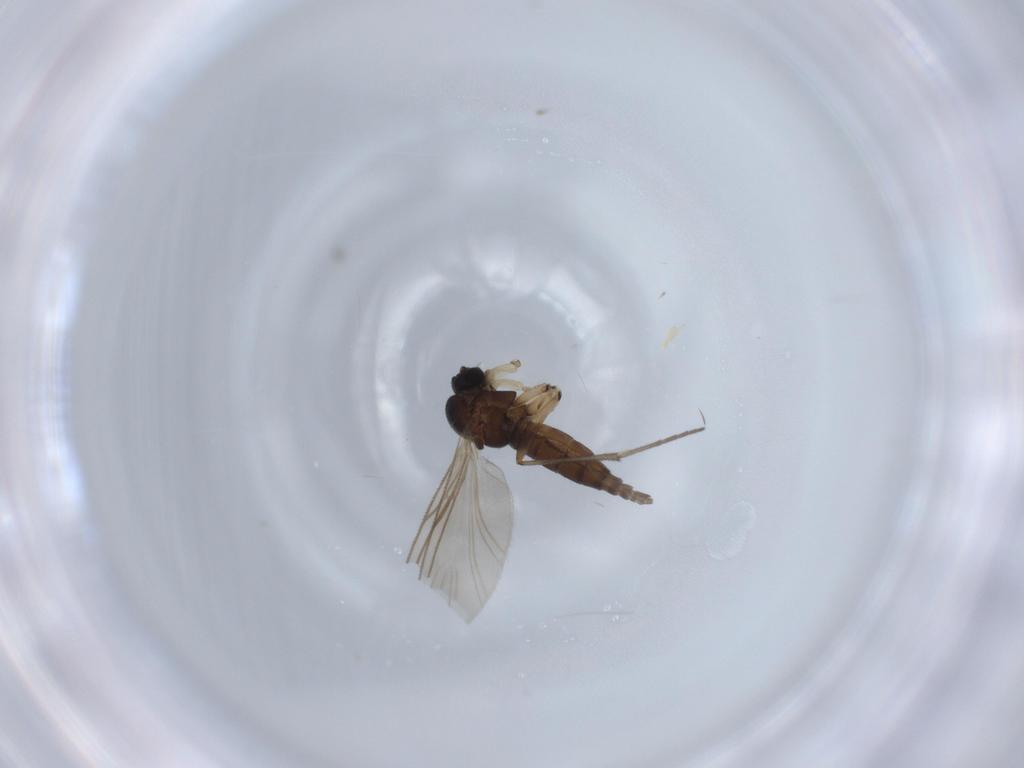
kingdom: Animalia
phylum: Arthropoda
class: Insecta
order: Diptera
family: Sciaridae
